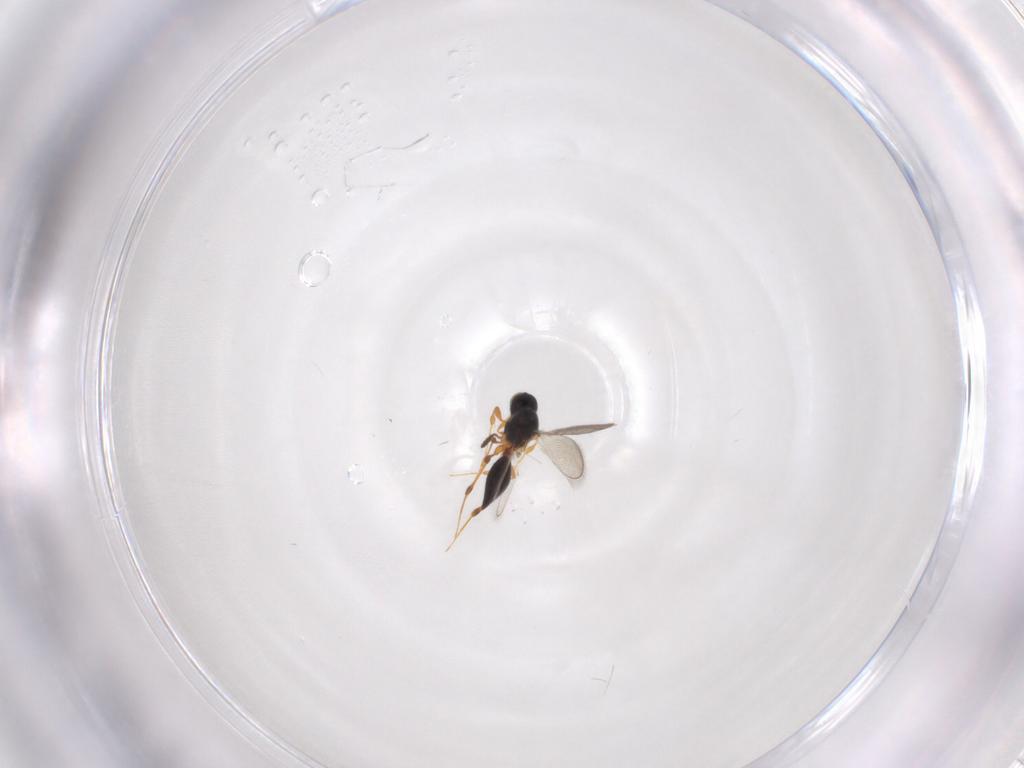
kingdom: Animalia
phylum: Arthropoda
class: Insecta
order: Hymenoptera
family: Platygastridae
